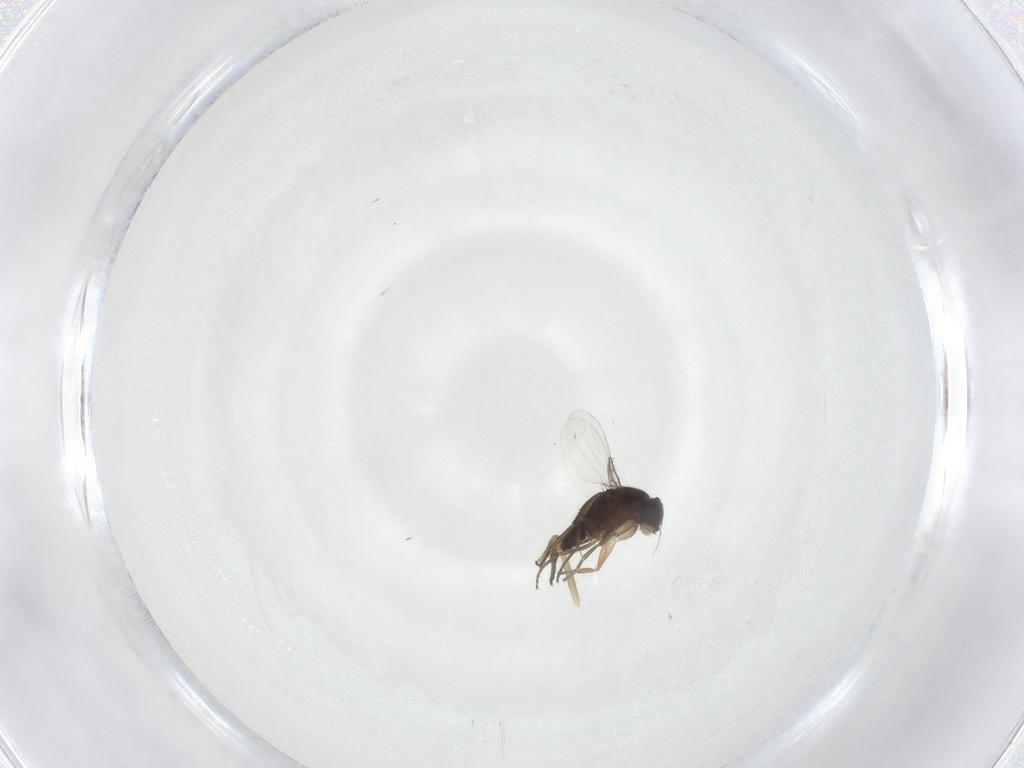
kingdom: Animalia
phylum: Arthropoda
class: Insecta
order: Diptera
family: Phoridae
